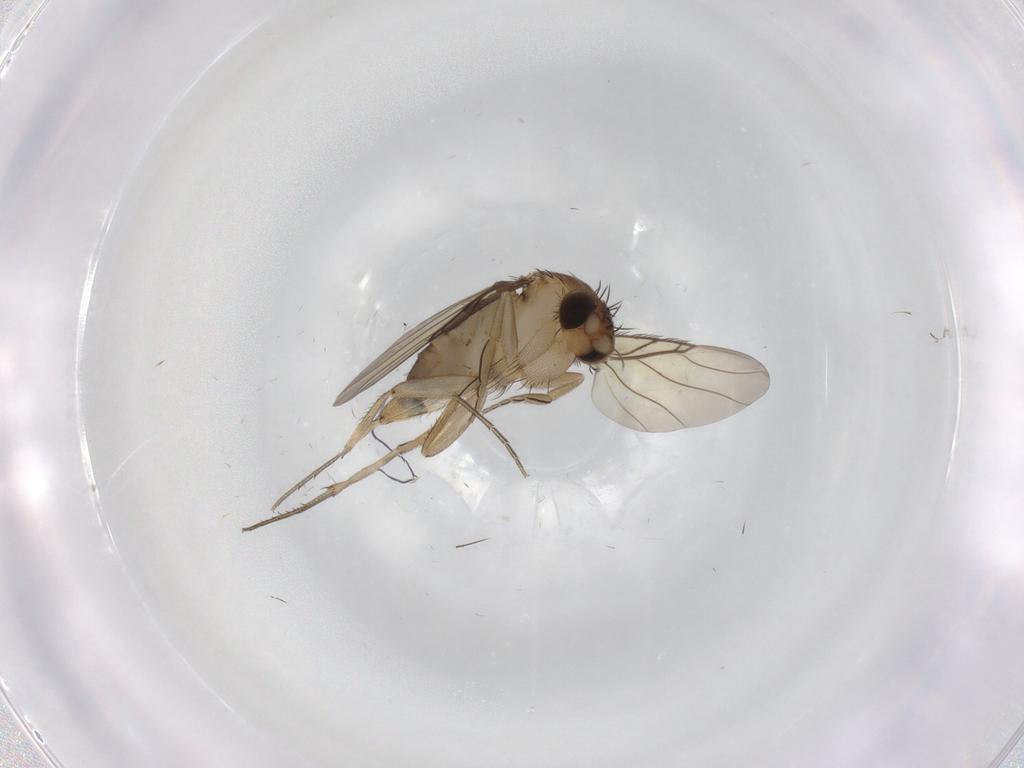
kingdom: Animalia
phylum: Arthropoda
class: Insecta
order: Diptera
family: Phoridae
